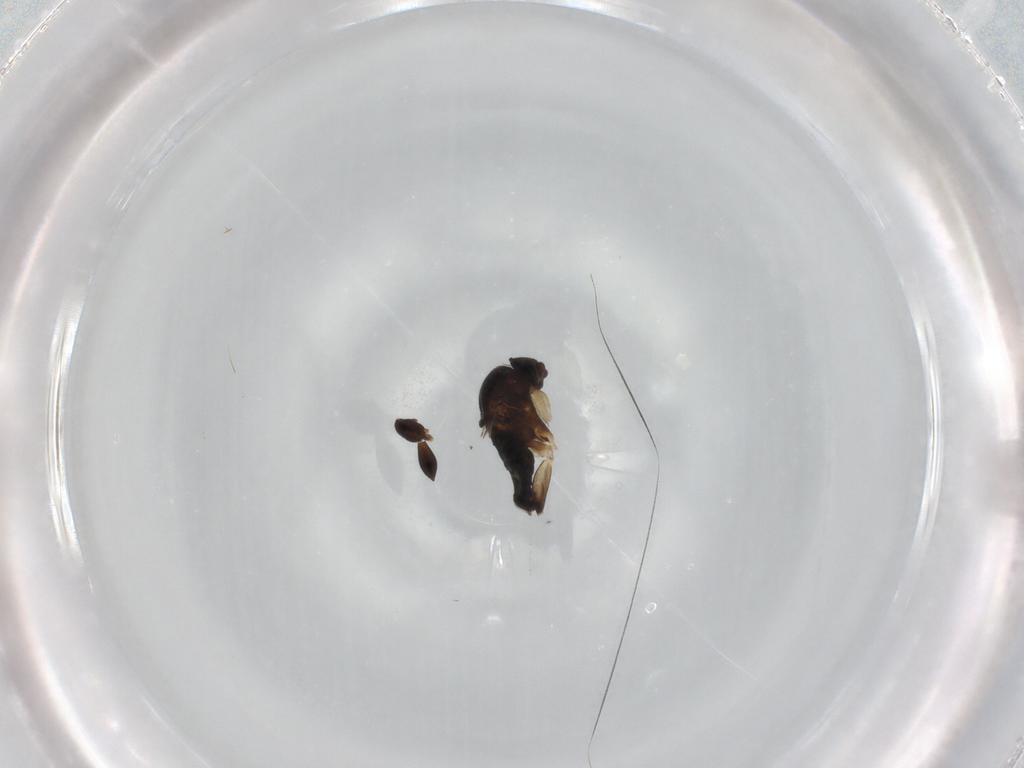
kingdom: Animalia
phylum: Arthropoda
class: Insecta
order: Diptera
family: Phoridae
